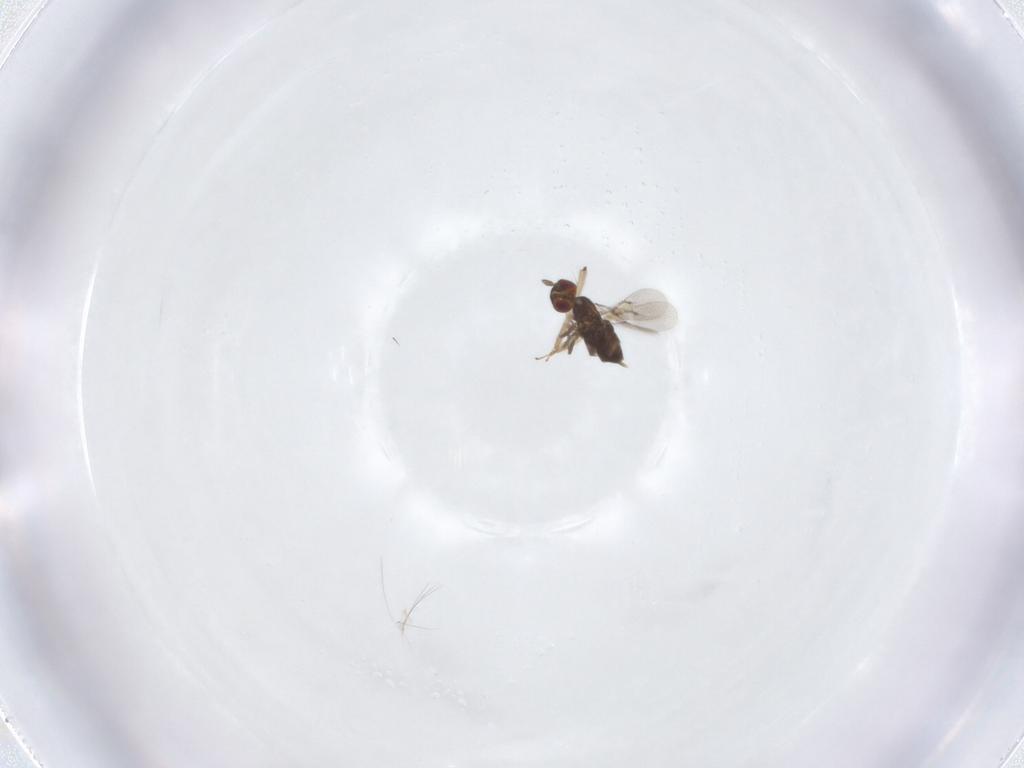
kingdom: Animalia
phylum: Arthropoda
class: Insecta
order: Hymenoptera
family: Trichogrammatidae
